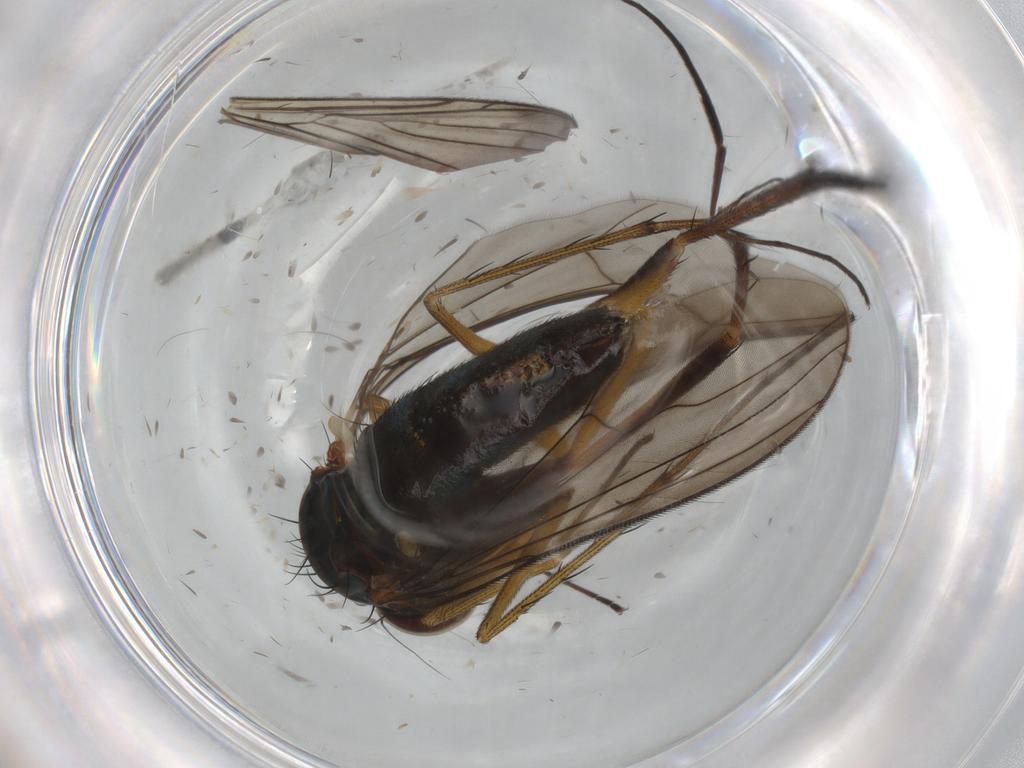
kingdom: Animalia
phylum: Arthropoda
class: Insecta
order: Diptera
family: Dolichopodidae
